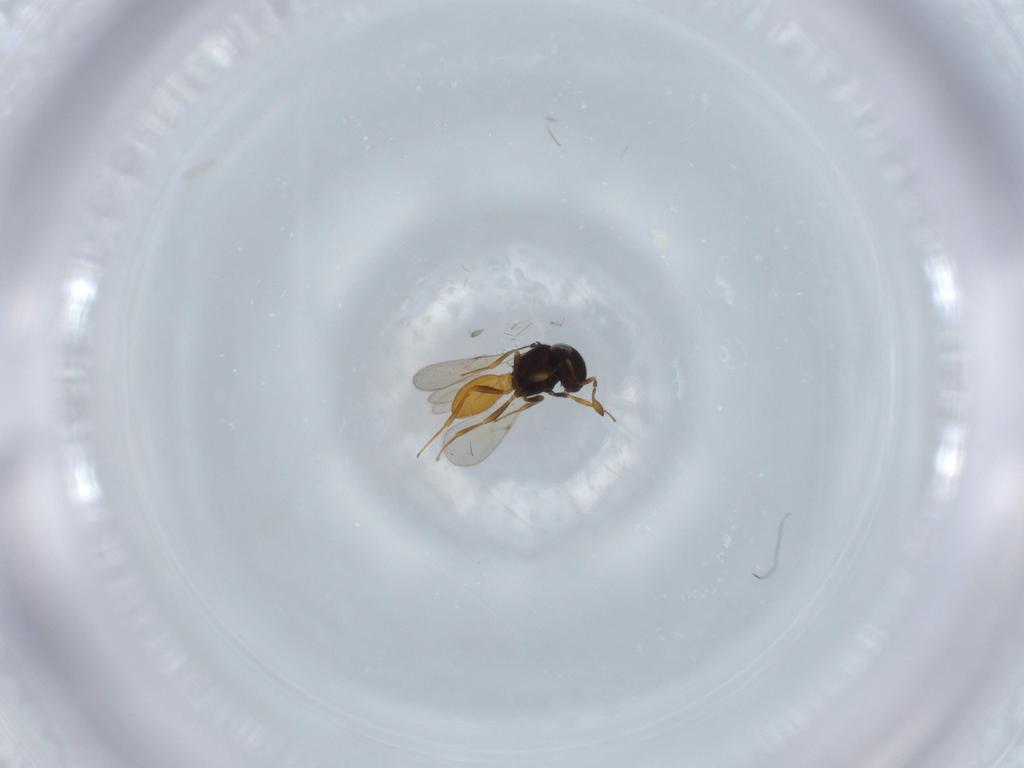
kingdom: Animalia
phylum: Arthropoda
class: Insecta
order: Hymenoptera
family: Scelionidae
